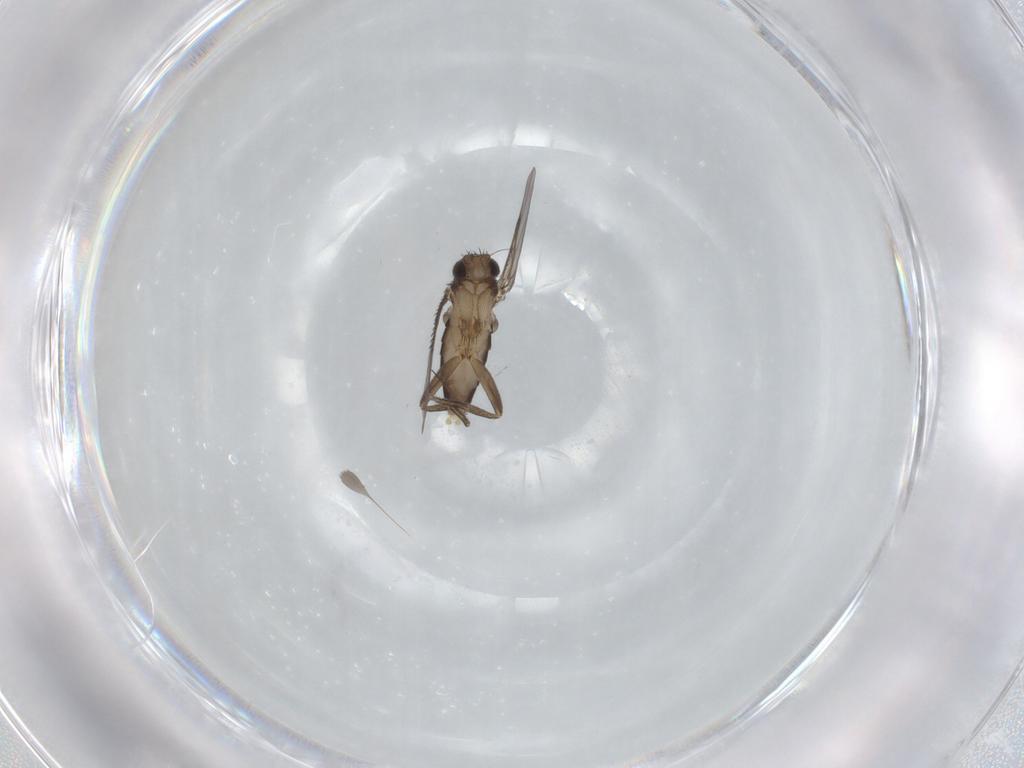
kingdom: Animalia
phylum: Arthropoda
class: Insecta
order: Diptera
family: Phoridae
